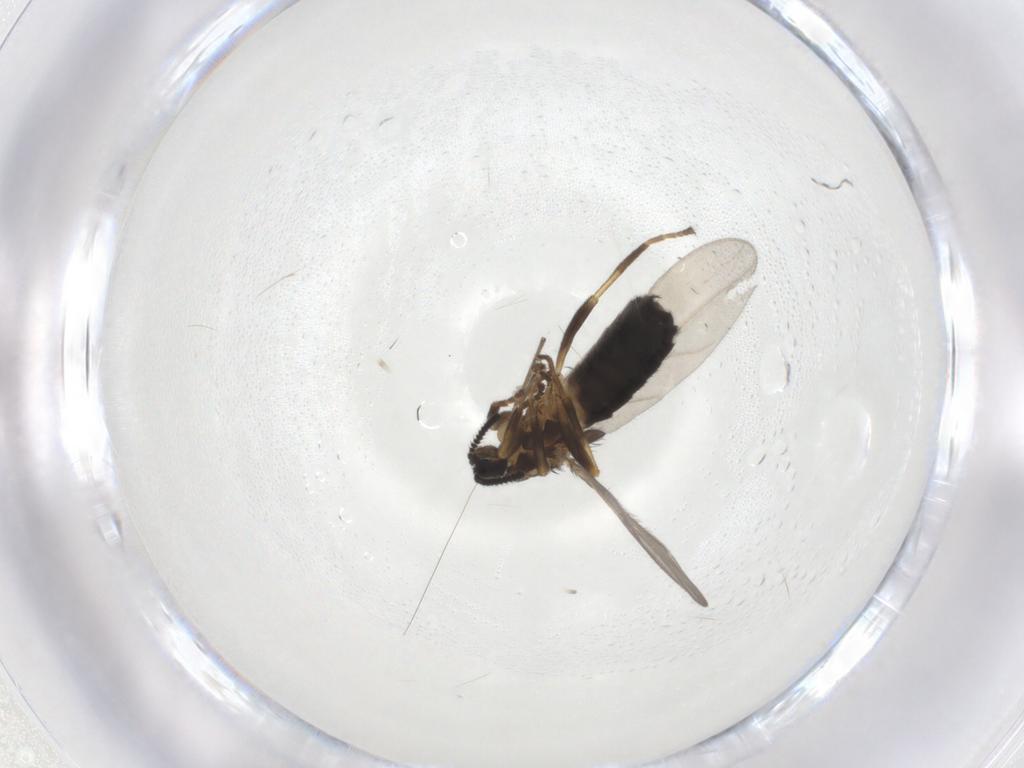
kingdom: Animalia
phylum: Arthropoda
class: Insecta
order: Diptera
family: Scatopsidae
